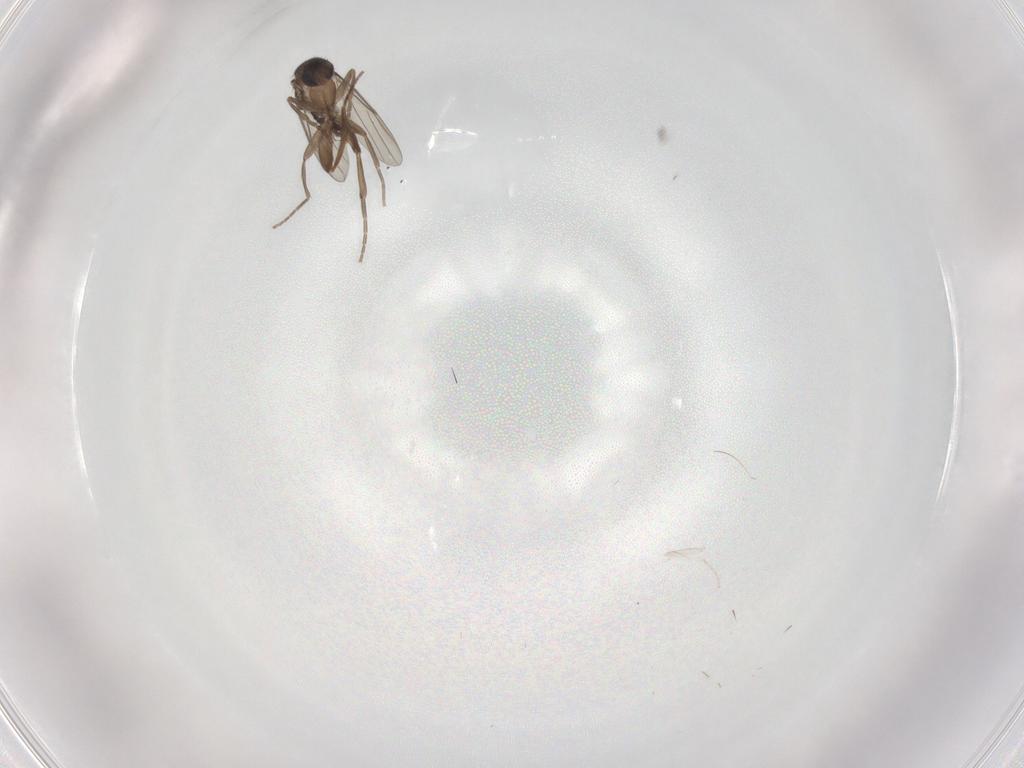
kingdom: Animalia
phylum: Arthropoda
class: Insecta
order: Diptera
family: Cecidomyiidae
